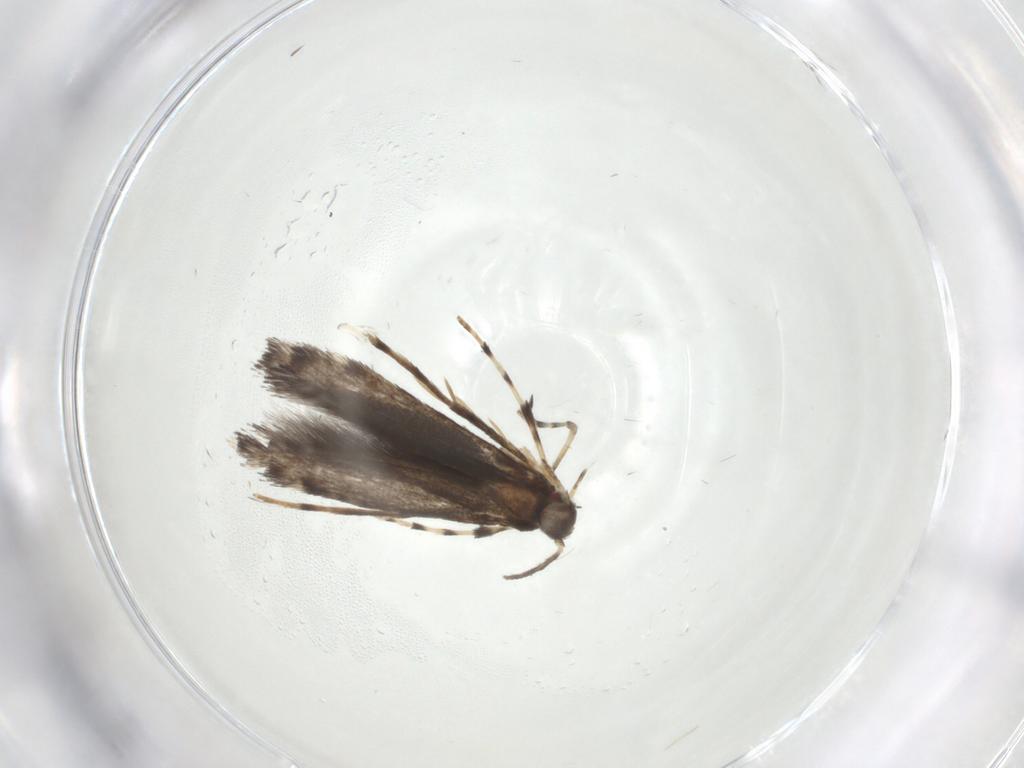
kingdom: Animalia
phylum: Arthropoda
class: Insecta
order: Lepidoptera
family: Gracillariidae
